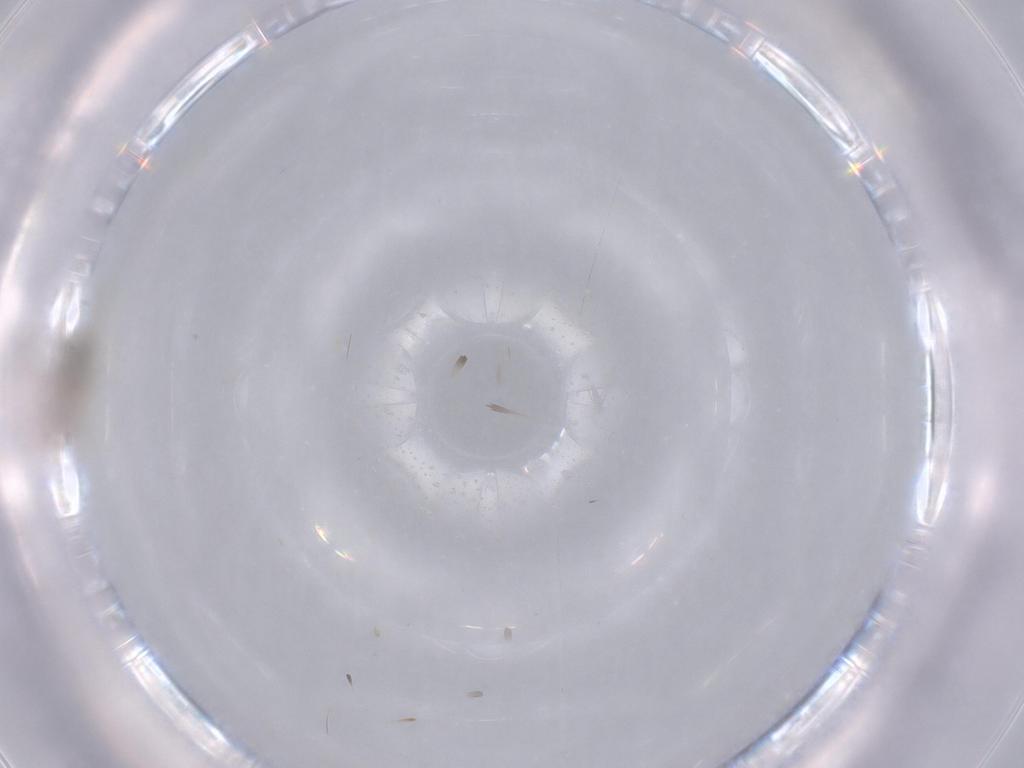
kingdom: Animalia
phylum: Arthropoda
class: Insecta
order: Diptera
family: Cecidomyiidae
